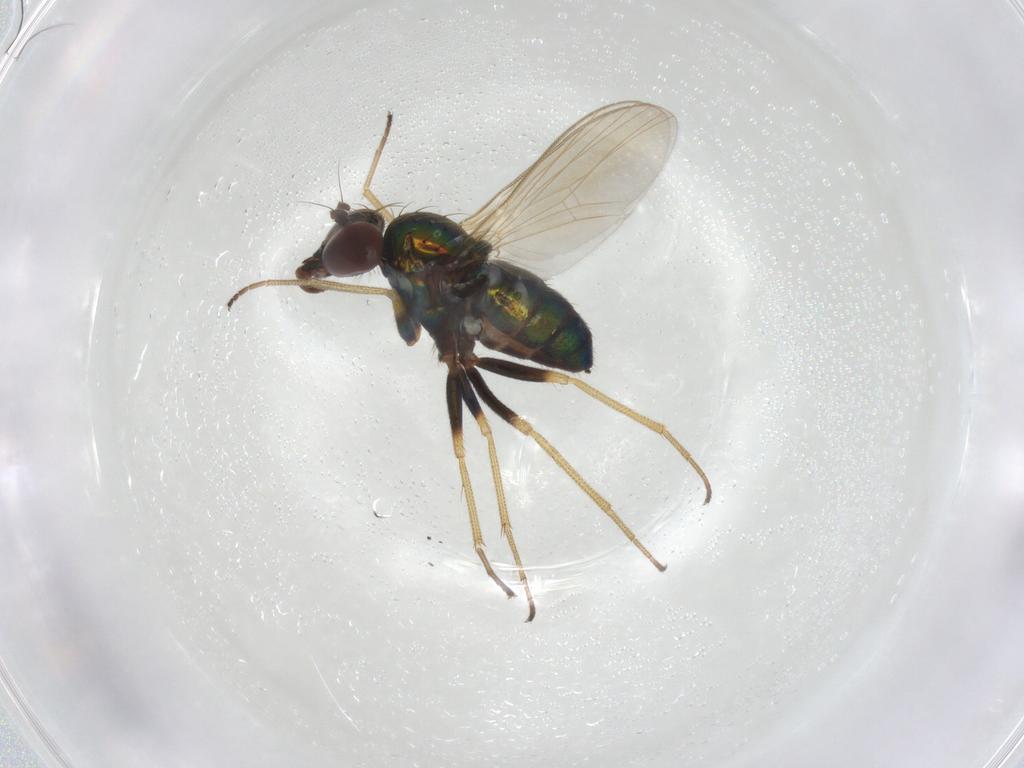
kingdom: Animalia
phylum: Arthropoda
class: Insecta
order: Diptera
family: Dolichopodidae
